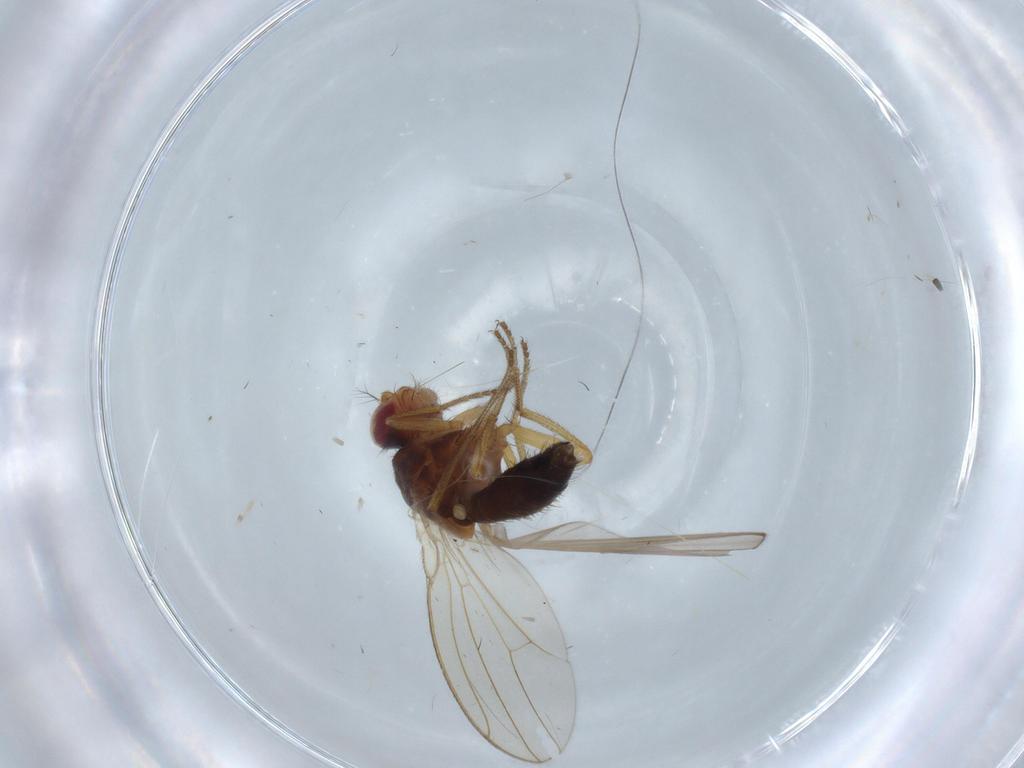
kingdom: Animalia
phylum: Arthropoda
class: Insecta
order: Diptera
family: Drosophilidae
